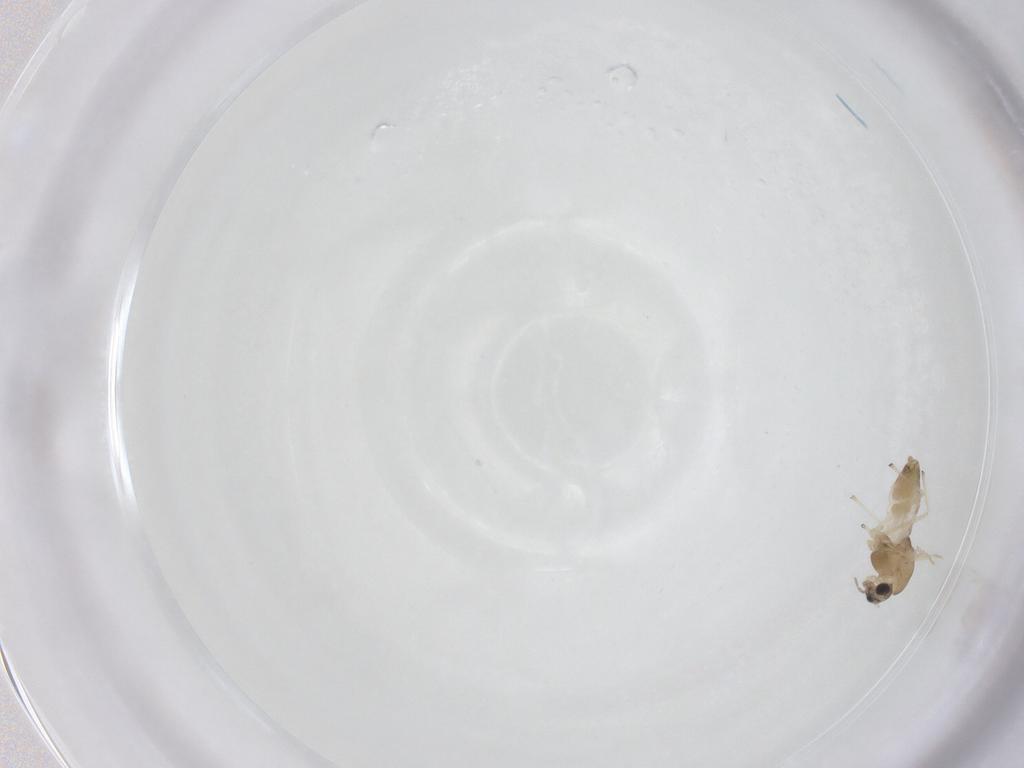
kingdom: Animalia
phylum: Arthropoda
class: Insecta
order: Diptera
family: Chironomidae
